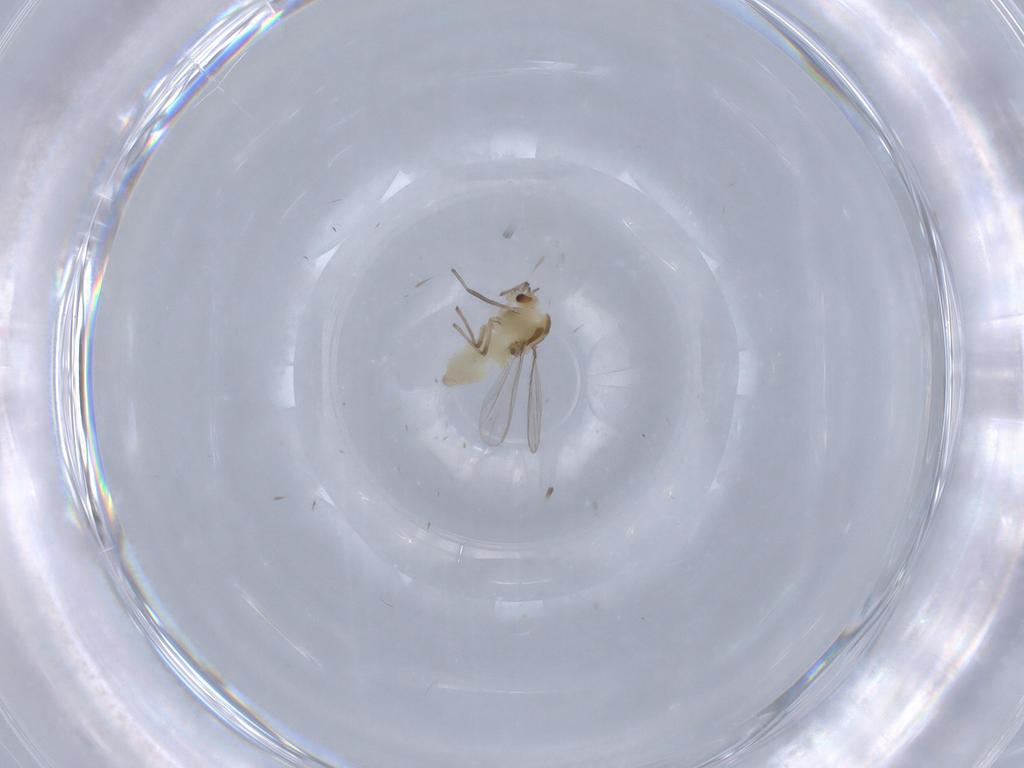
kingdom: Animalia
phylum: Arthropoda
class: Insecta
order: Diptera
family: Chironomidae
